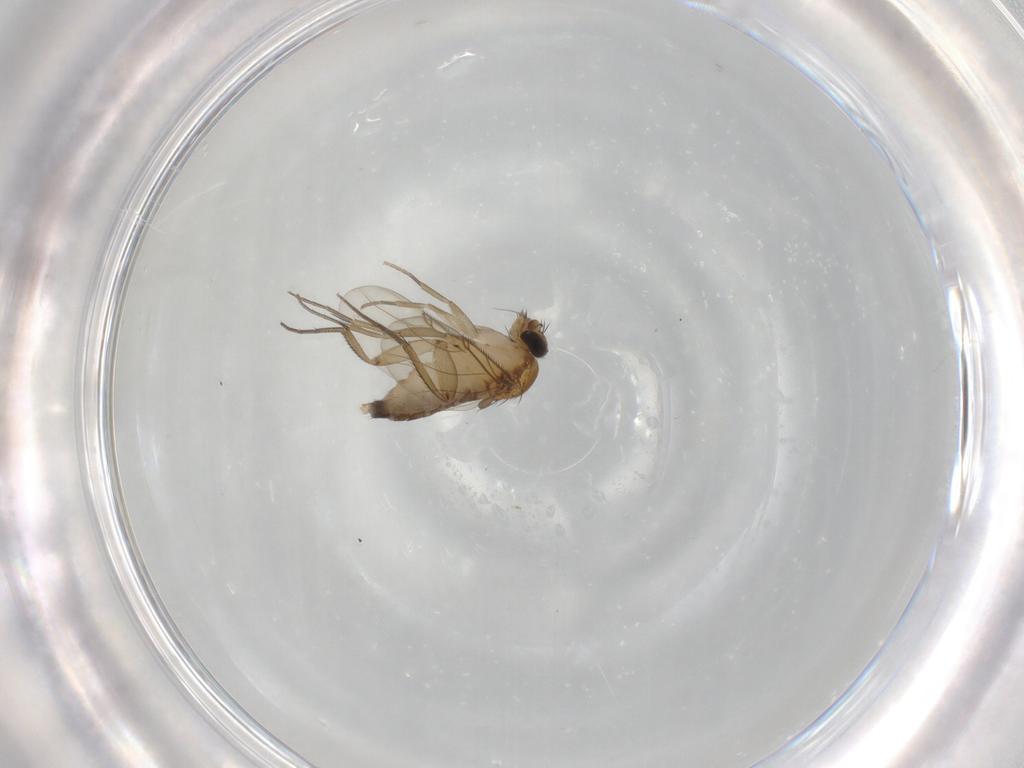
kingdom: Animalia
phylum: Arthropoda
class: Insecta
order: Diptera
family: Phoridae
